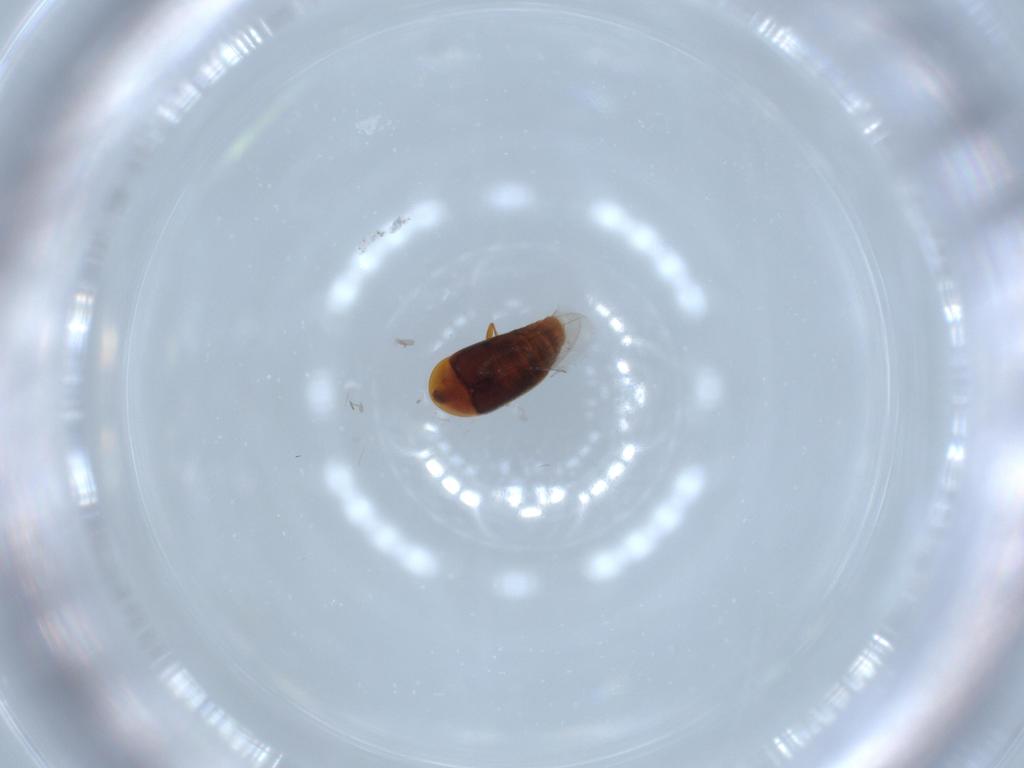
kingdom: Animalia
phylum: Arthropoda
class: Insecta
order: Coleoptera
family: Corylophidae
